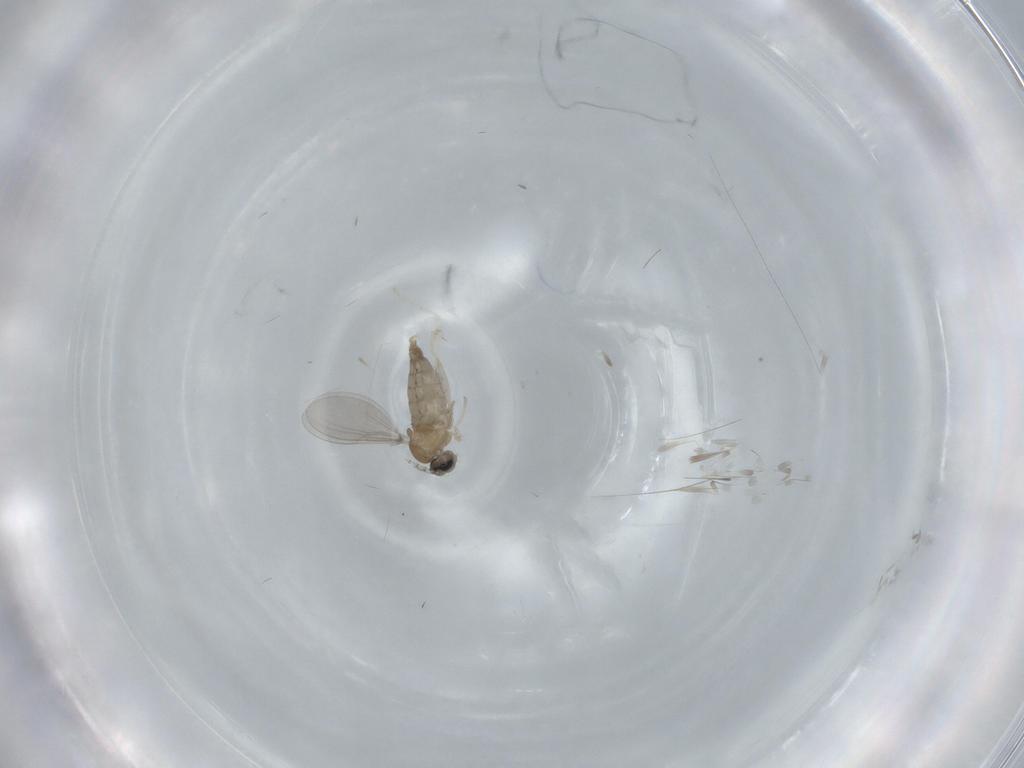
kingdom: Animalia
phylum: Arthropoda
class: Insecta
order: Diptera
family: Cecidomyiidae
